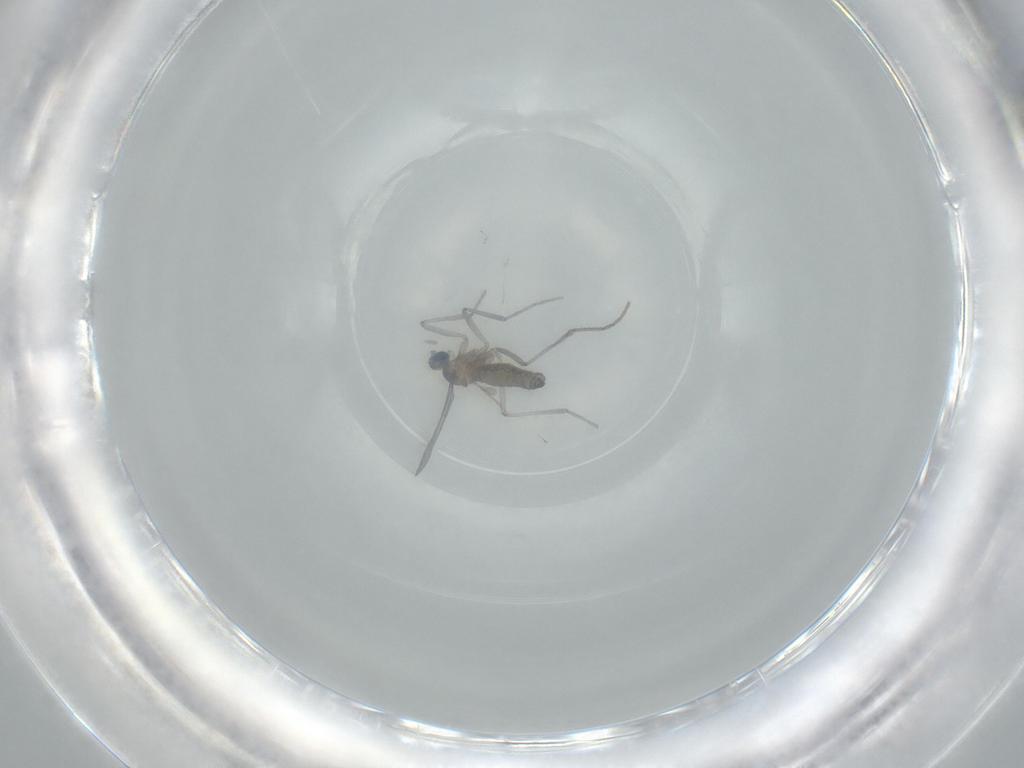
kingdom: Animalia
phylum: Arthropoda
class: Insecta
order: Diptera
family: Cecidomyiidae
